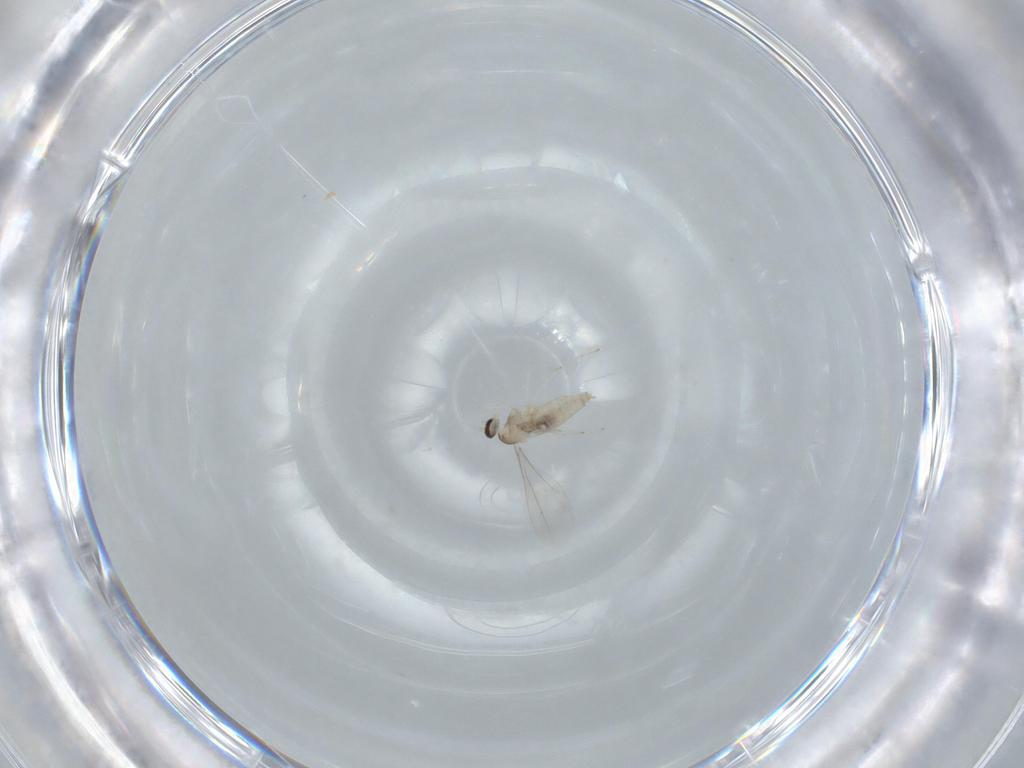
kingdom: Animalia
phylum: Arthropoda
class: Insecta
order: Diptera
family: Cecidomyiidae
